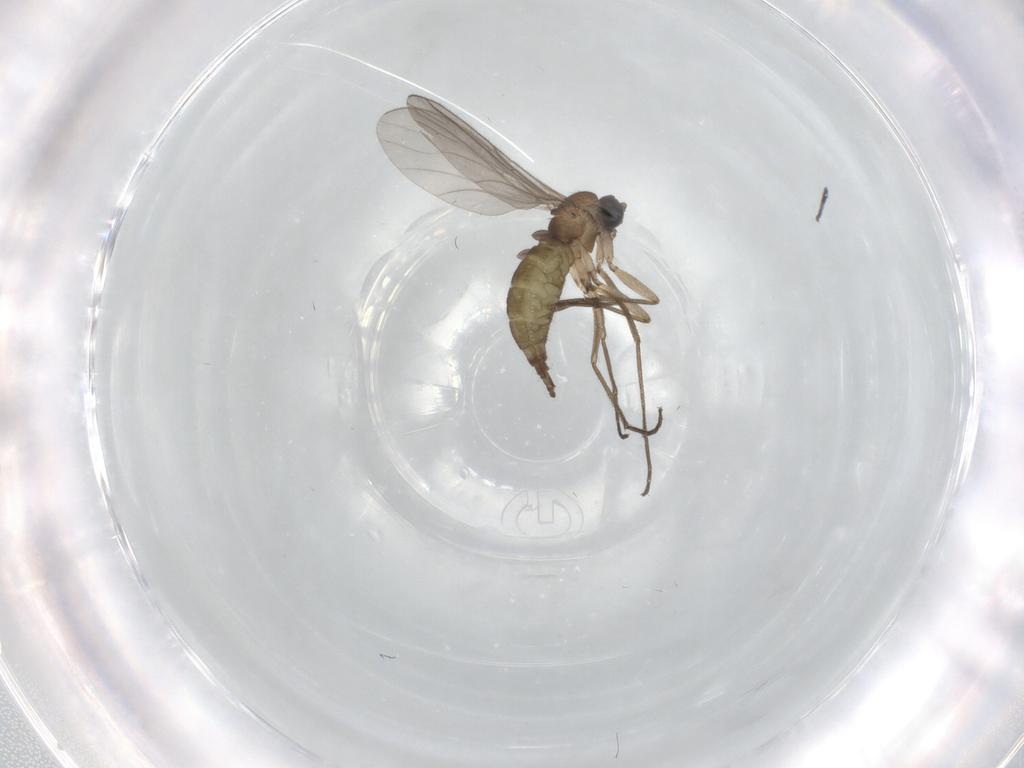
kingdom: Animalia
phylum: Arthropoda
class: Insecta
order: Diptera
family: Sciaridae
